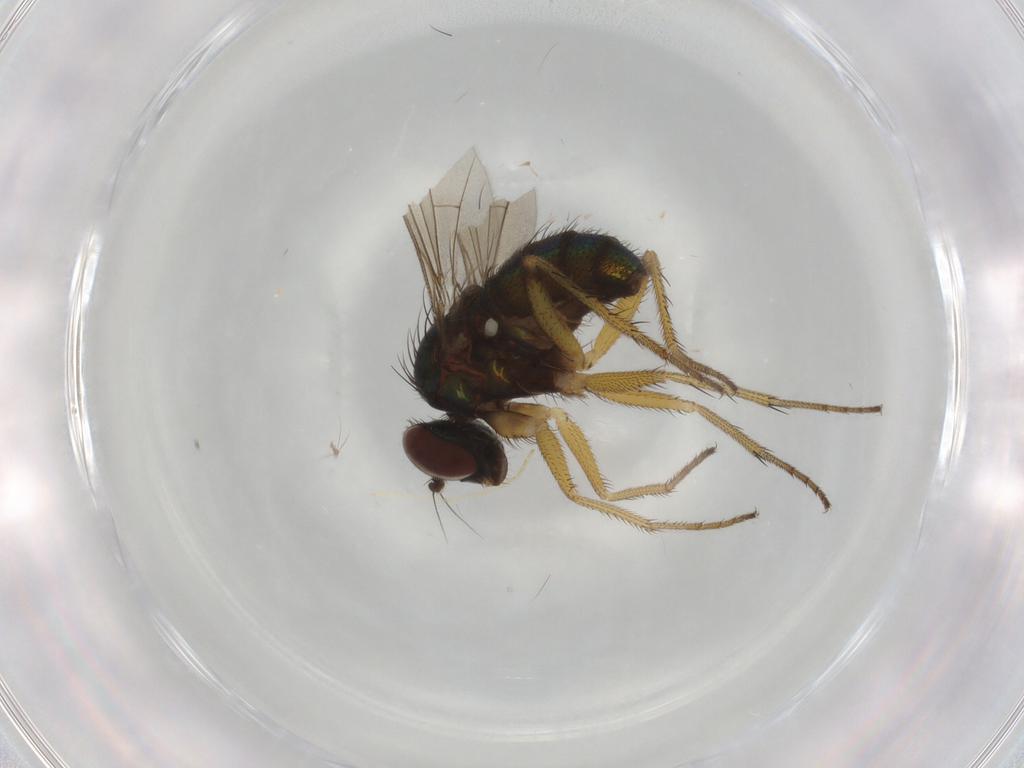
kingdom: Animalia
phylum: Arthropoda
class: Insecta
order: Diptera
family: Dolichopodidae
